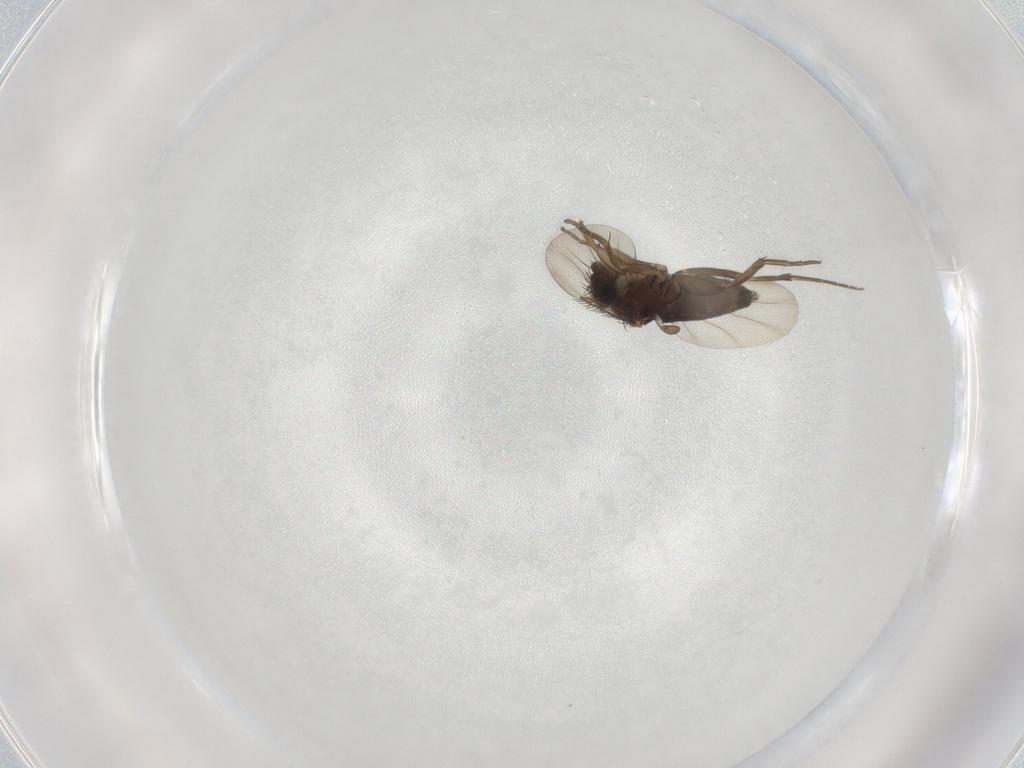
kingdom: Animalia
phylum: Arthropoda
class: Insecta
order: Diptera
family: Phoridae
